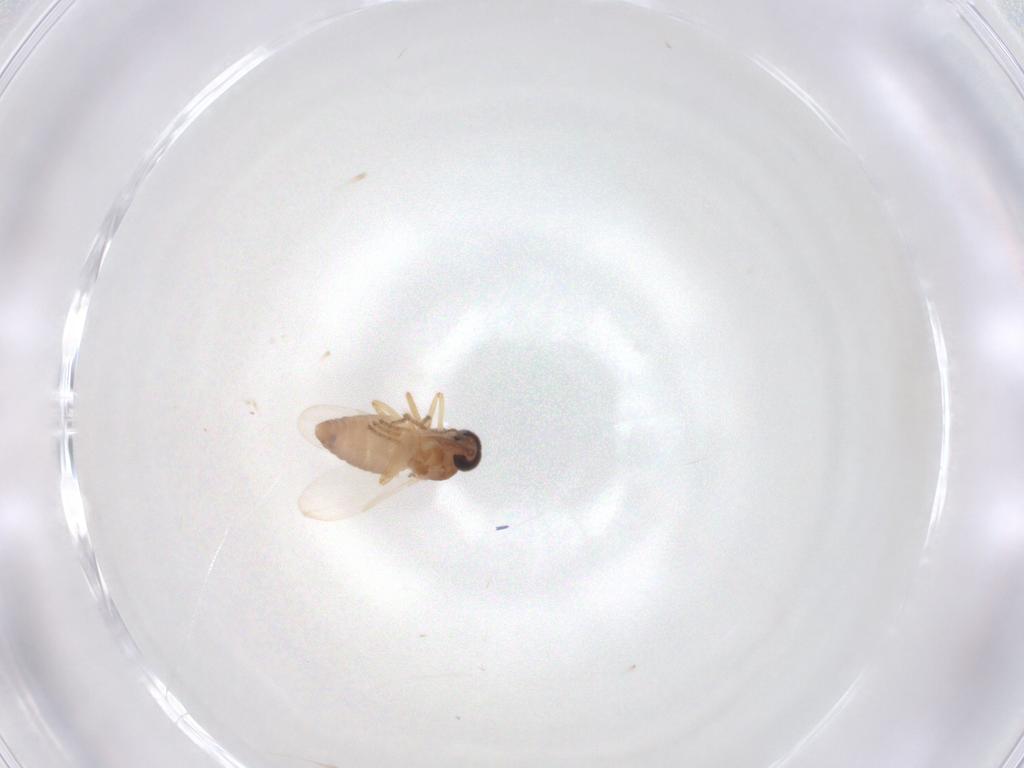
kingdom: Animalia
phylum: Arthropoda
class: Insecta
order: Diptera
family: Ceratopogonidae
